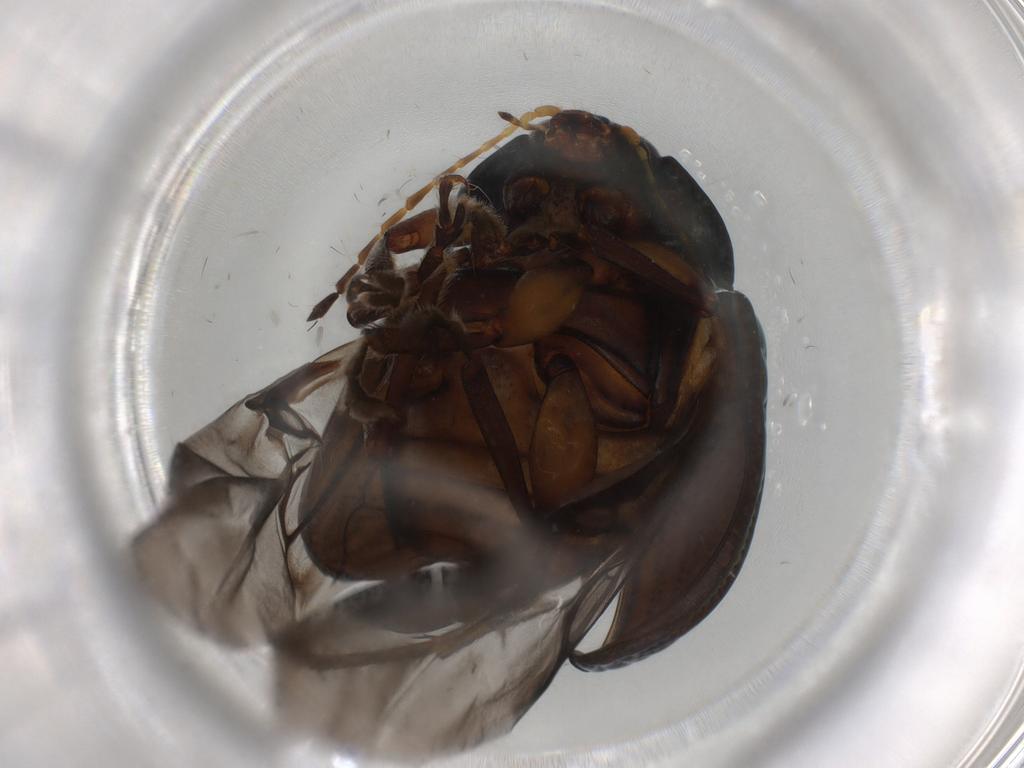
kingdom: Animalia
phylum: Arthropoda
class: Insecta
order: Coleoptera
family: Chrysomelidae
